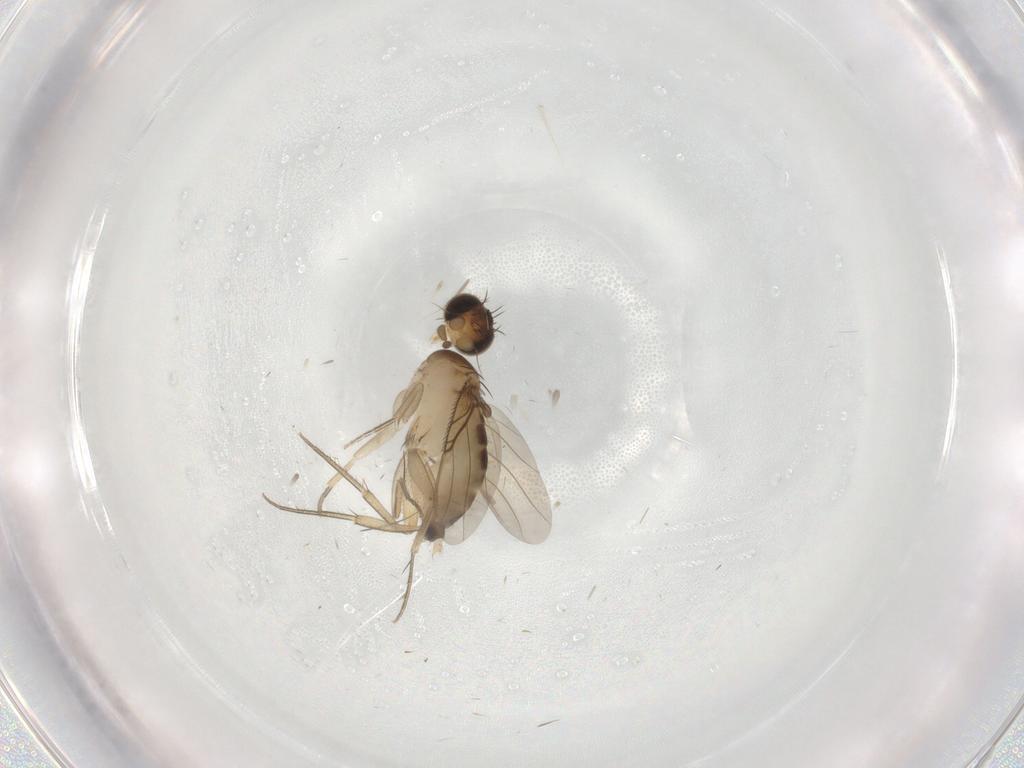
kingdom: Animalia
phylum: Arthropoda
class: Insecta
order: Diptera
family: Phoridae
